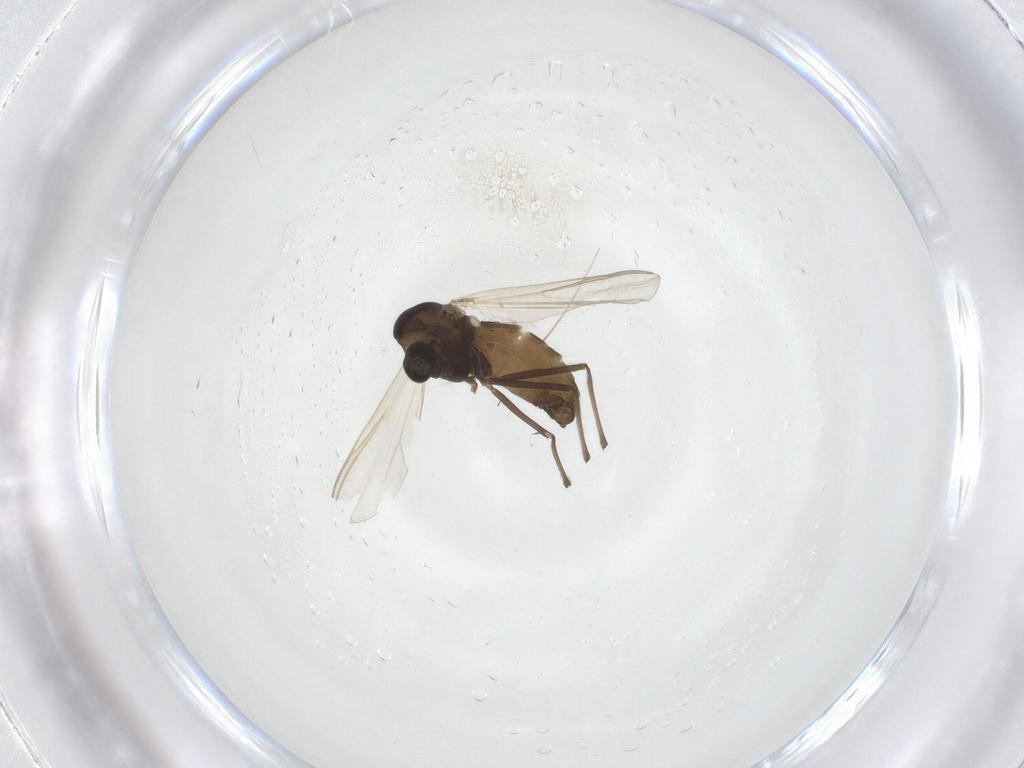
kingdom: Animalia
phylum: Arthropoda
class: Insecta
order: Diptera
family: Chironomidae
